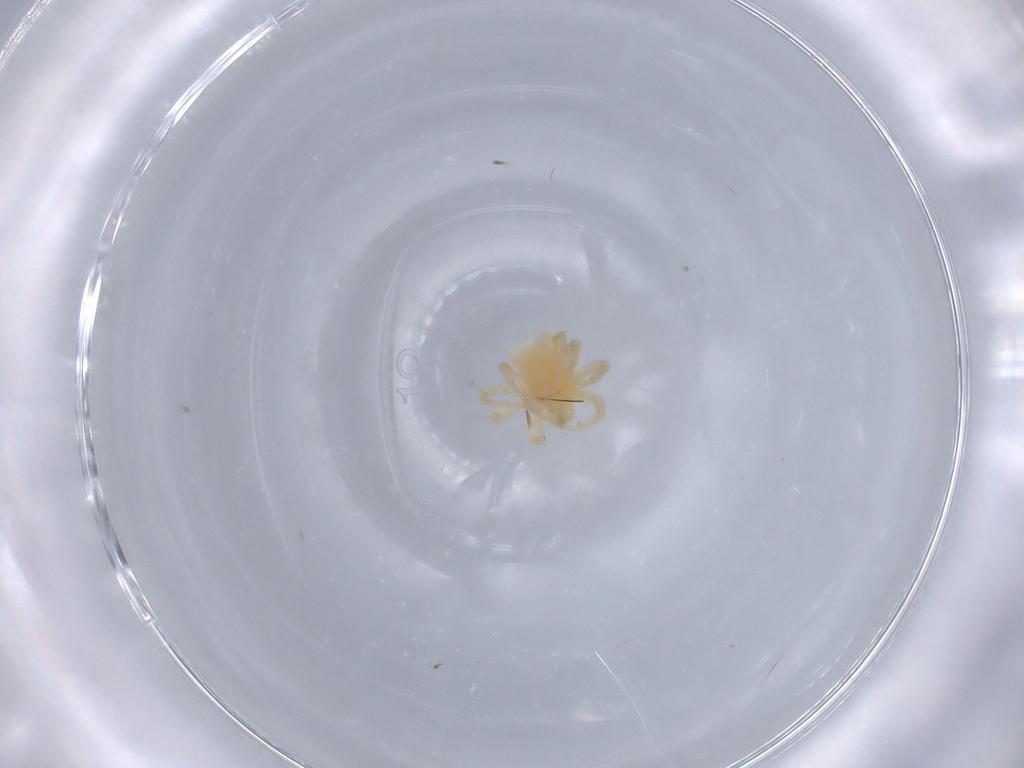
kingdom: Animalia
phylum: Arthropoda
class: Arachnida
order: Trombidiformes
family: Anystidae
